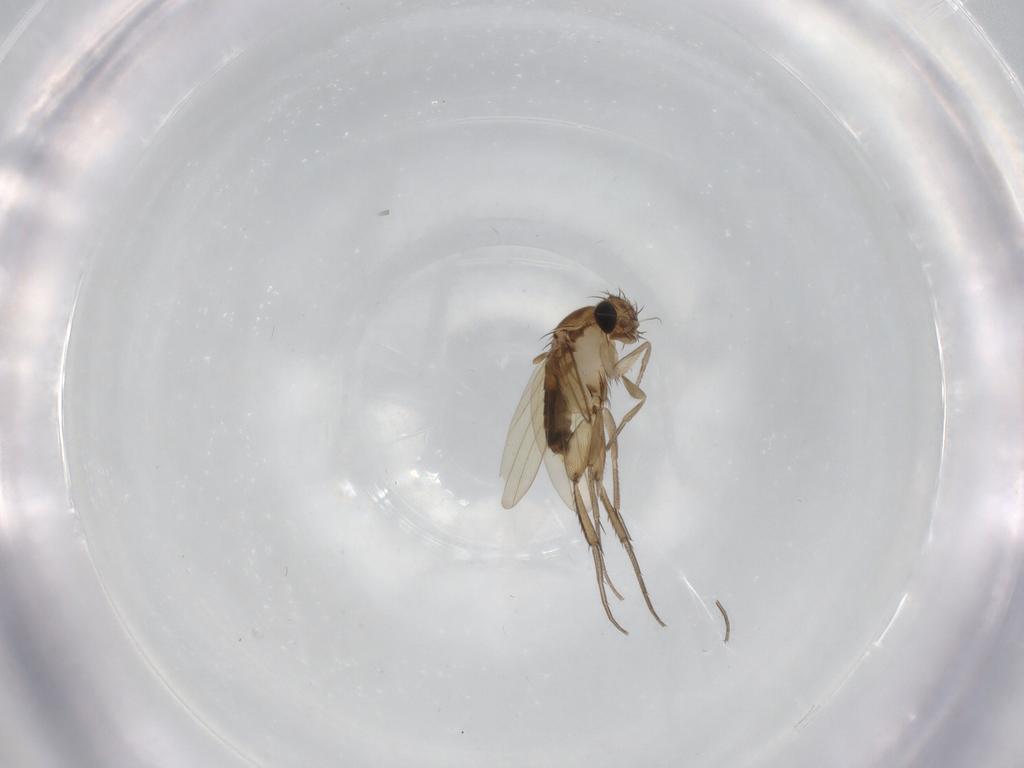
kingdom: Animalia
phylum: Arthropoda
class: Insecta
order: Diptera
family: Phoridae
